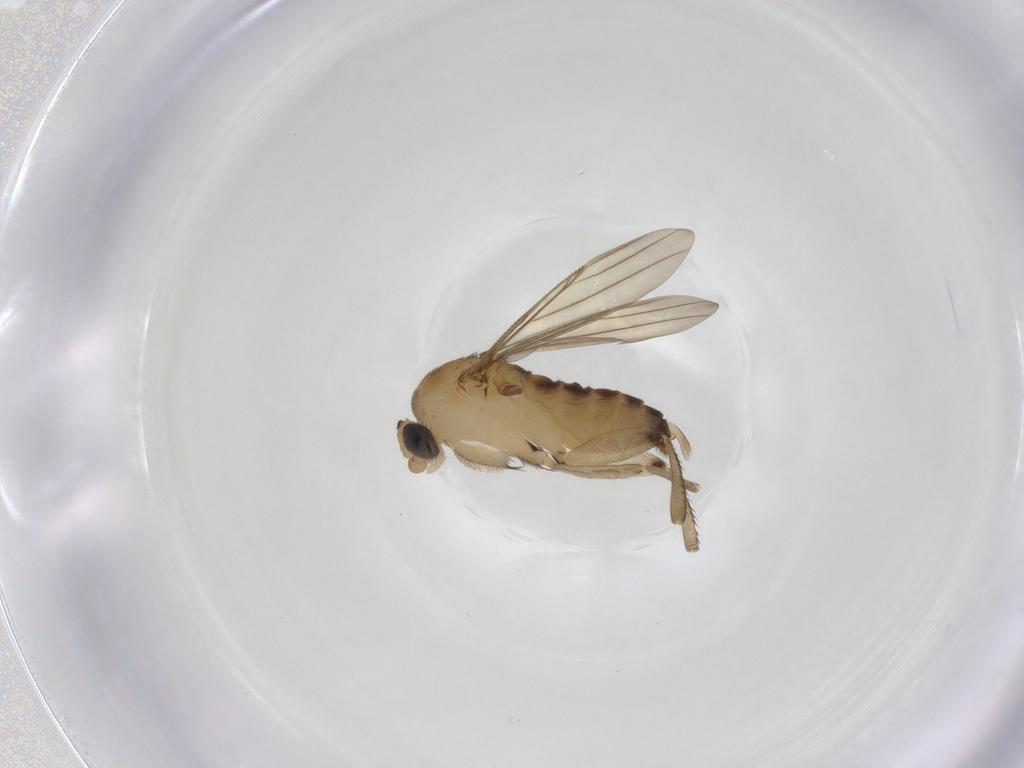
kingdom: Animalia
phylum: Arthropoda
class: Insecta
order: Diptera
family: Phoridae
